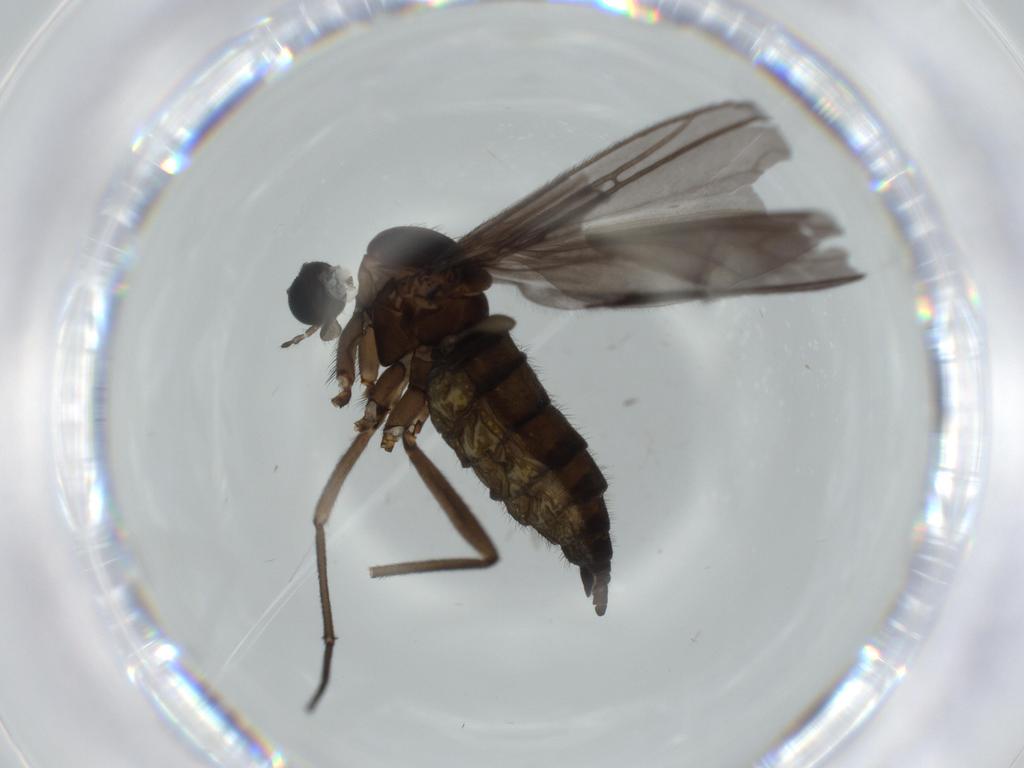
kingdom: Animalia
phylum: Arthropoda
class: Insecta
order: Diptera
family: Sciaridae
